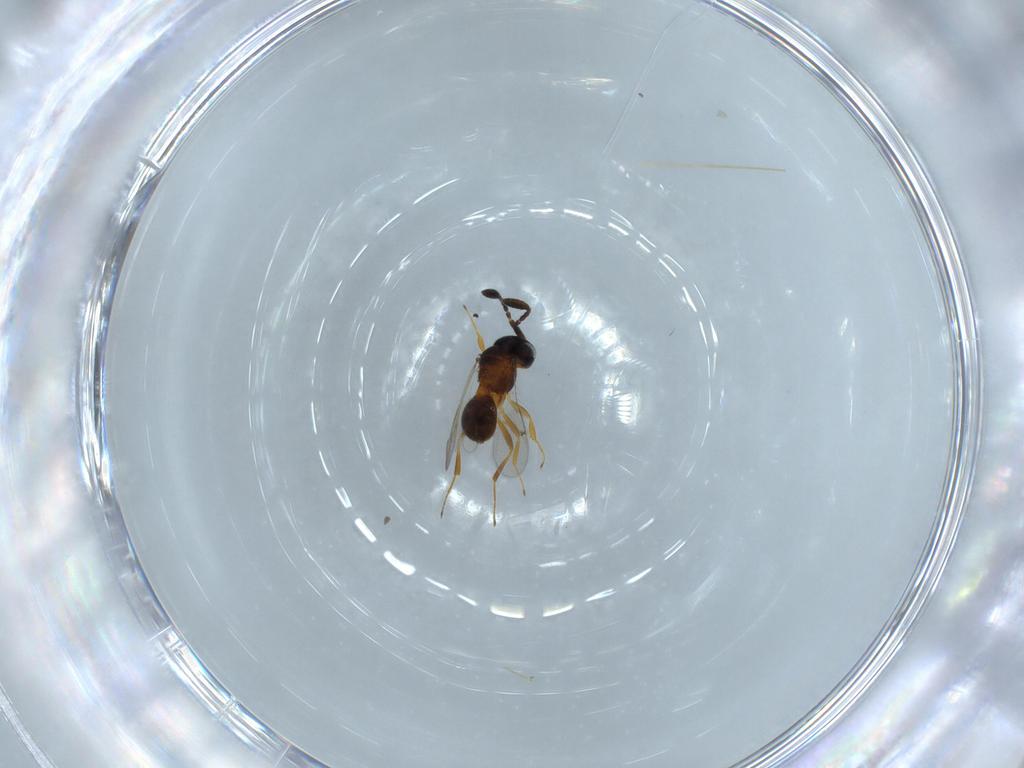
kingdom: Animalia
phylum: Arthropoda
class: Insecta
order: Hymenoptera
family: Scelionidae
